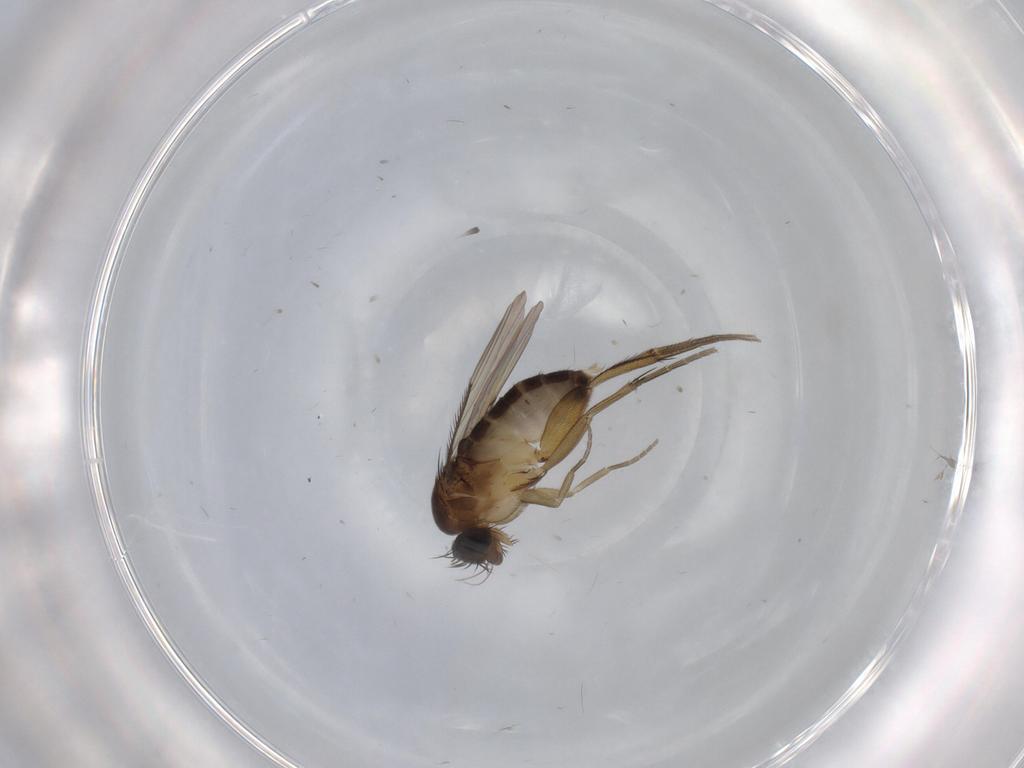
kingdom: Animalia
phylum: Arthropoda
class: Insecta
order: Diptera
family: Phoridae
